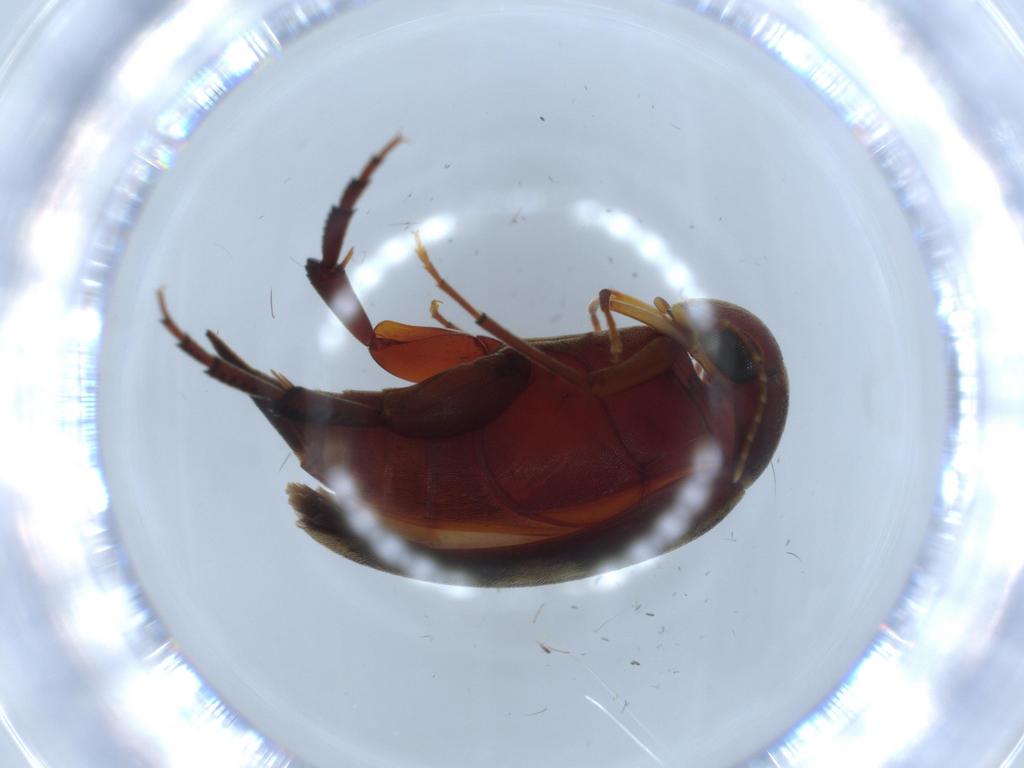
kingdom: Animalia
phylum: Arthropoda
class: Insecta
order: Coleoptera
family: Mordellidae
